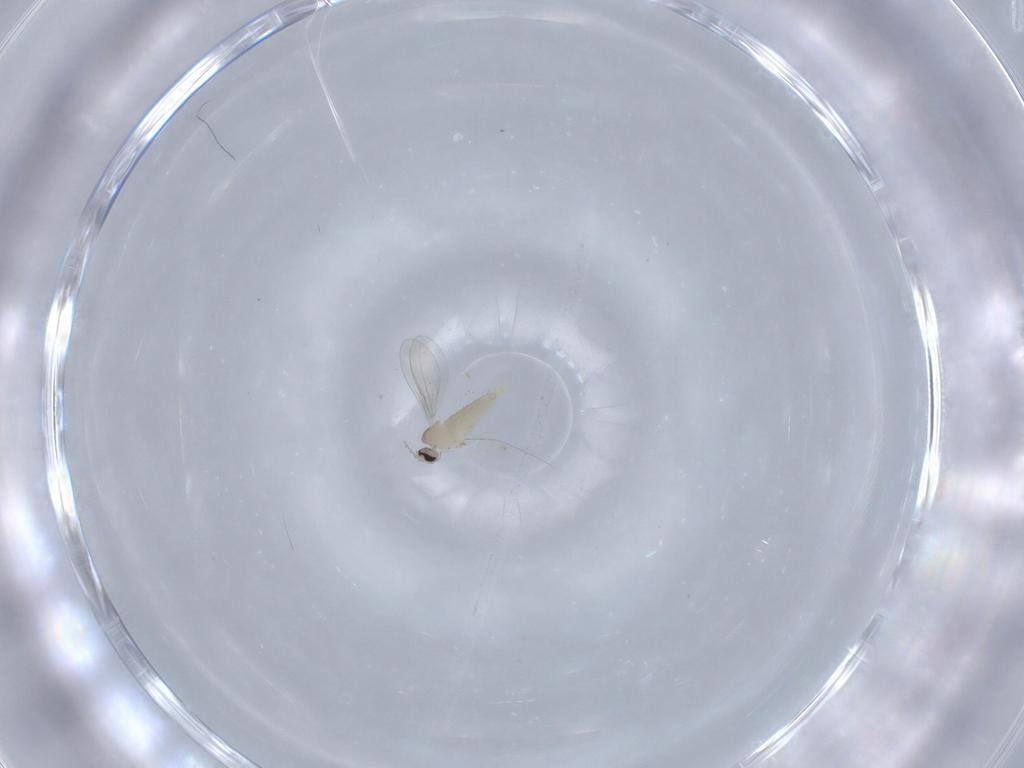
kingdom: Animalia
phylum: Arthropoda
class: Insecta
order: Diptera
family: Cecidomyiidae
